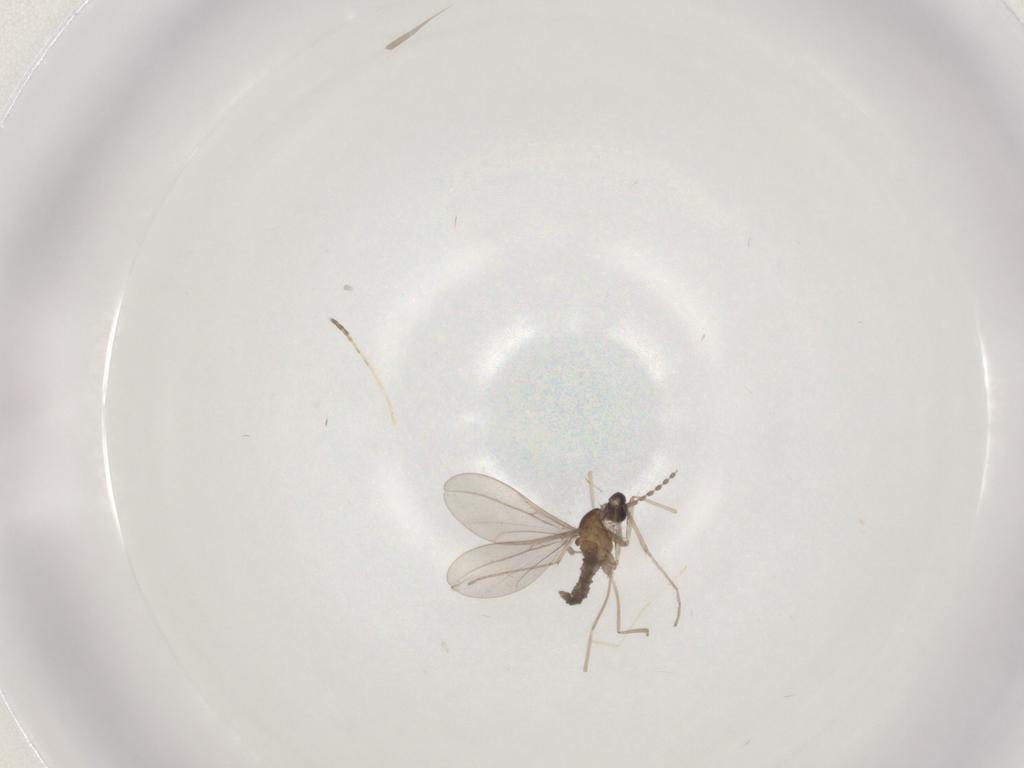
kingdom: Animalia
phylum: Arthropoda
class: Insecta
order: Diptera
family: Cecidomyiidae
